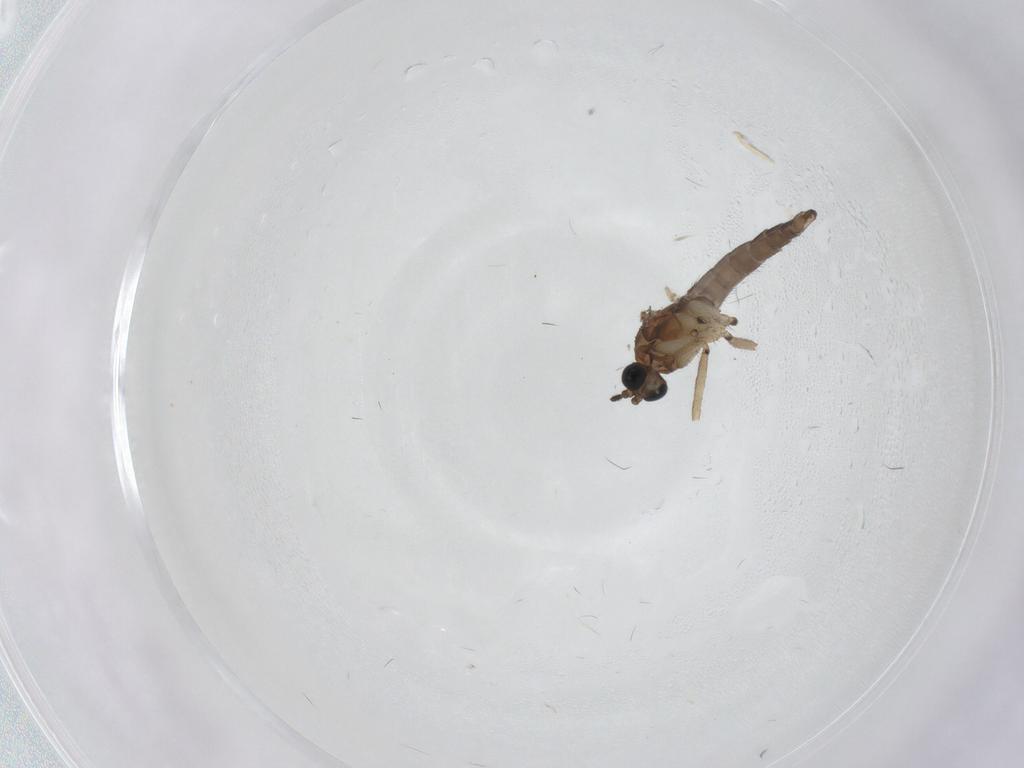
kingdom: Animalia
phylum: Arthropoda
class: Insecta
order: Diptera
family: Sciaridae
